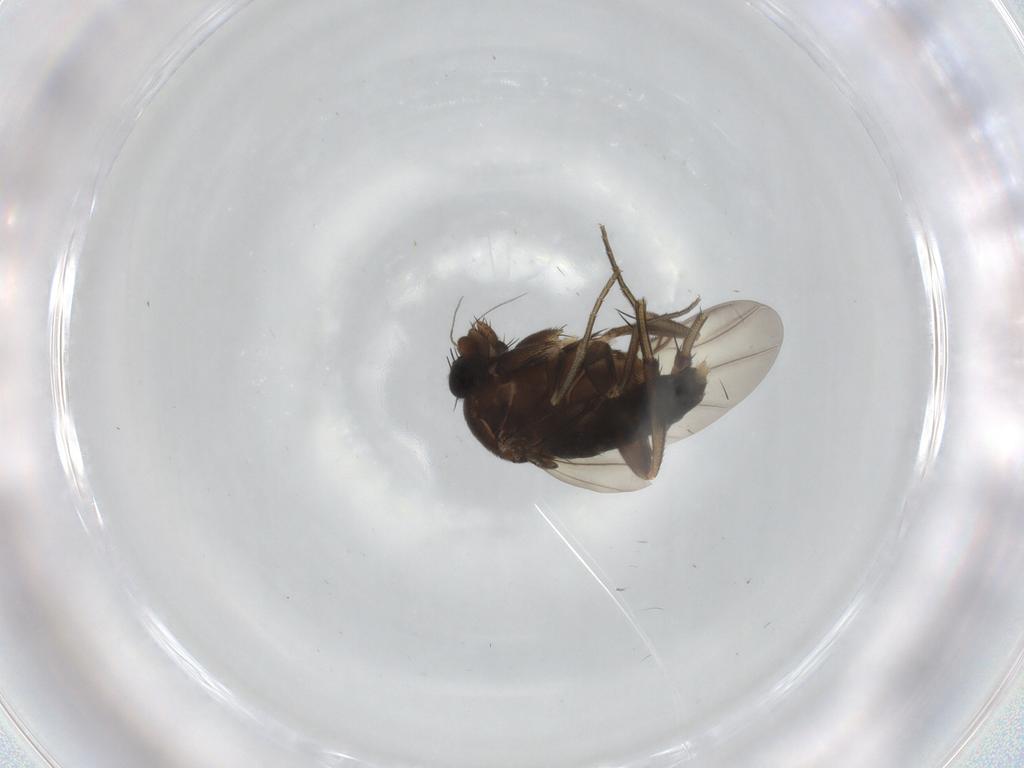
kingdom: Animalia
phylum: Arthropoda
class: Insecta
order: Diptera
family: Phoridae
